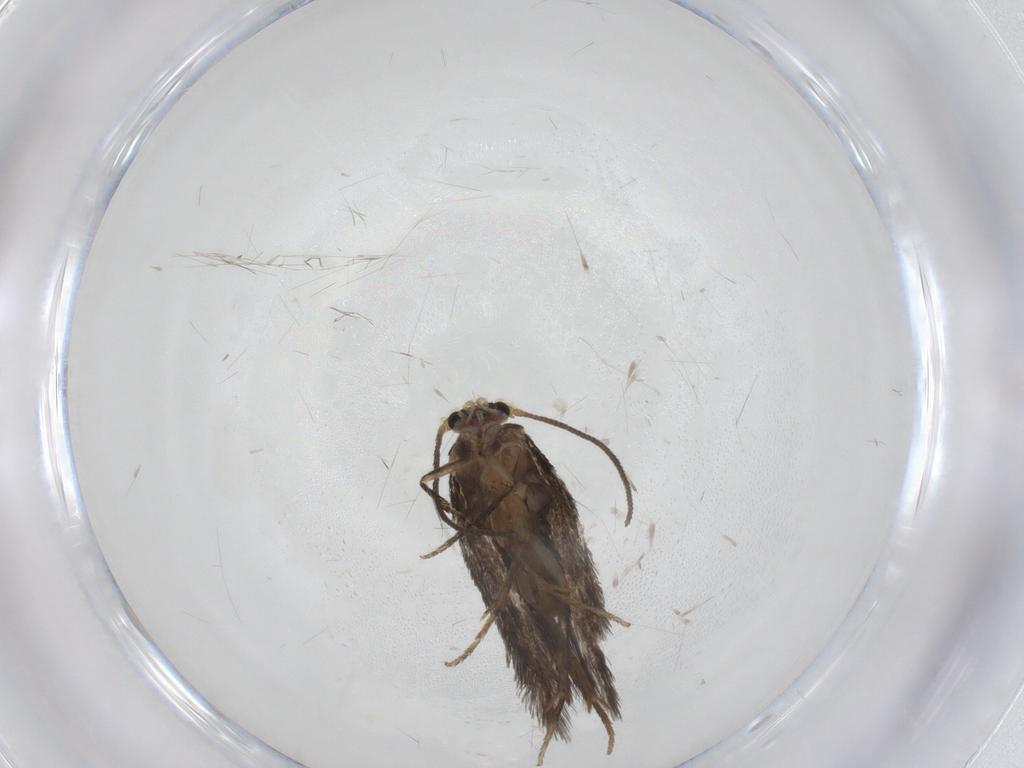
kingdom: Animalia
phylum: Arthropoda
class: Insecta
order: Lepidoptera
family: Nepticulidae
